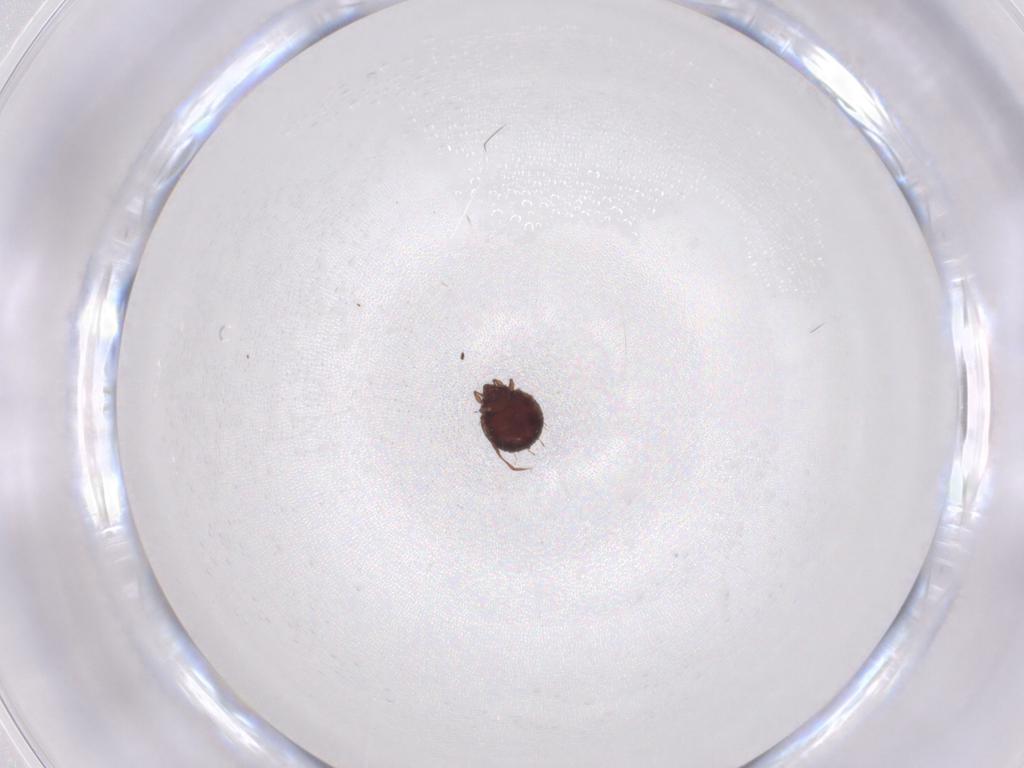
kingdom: Animalia
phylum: Arthropoda
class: Arachnida
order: Sarcoptiformes
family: Caloppiidae
